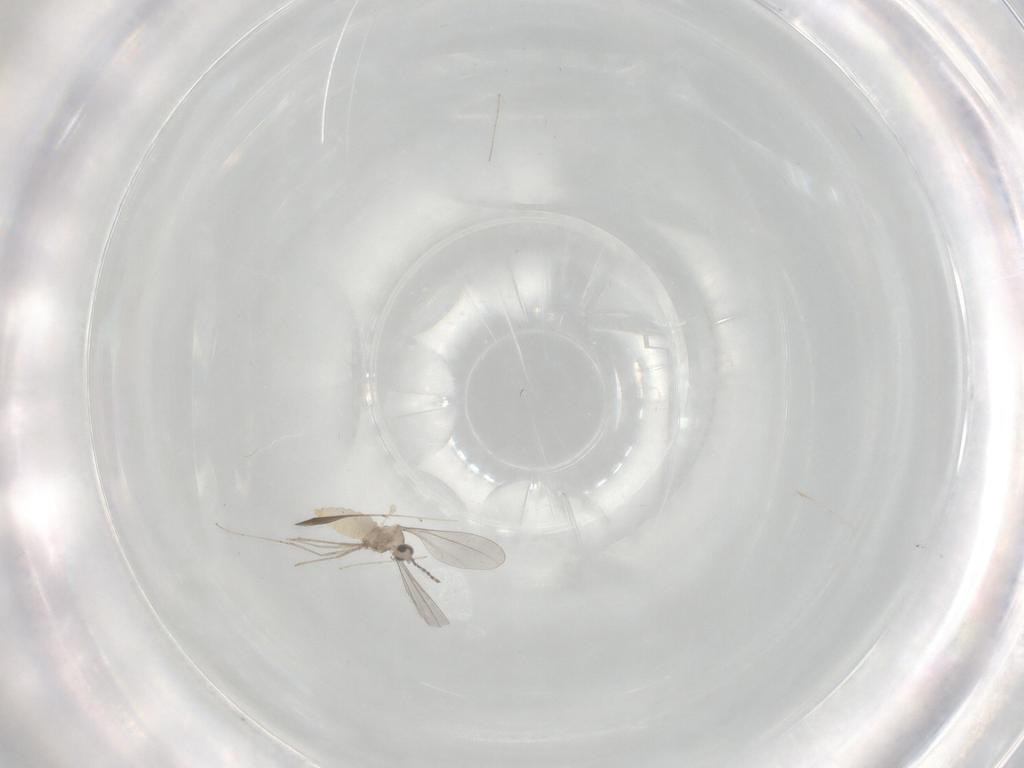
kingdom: Animalia
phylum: Arthropoda
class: Insecta
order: Diptera
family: Cecidomyiidae
